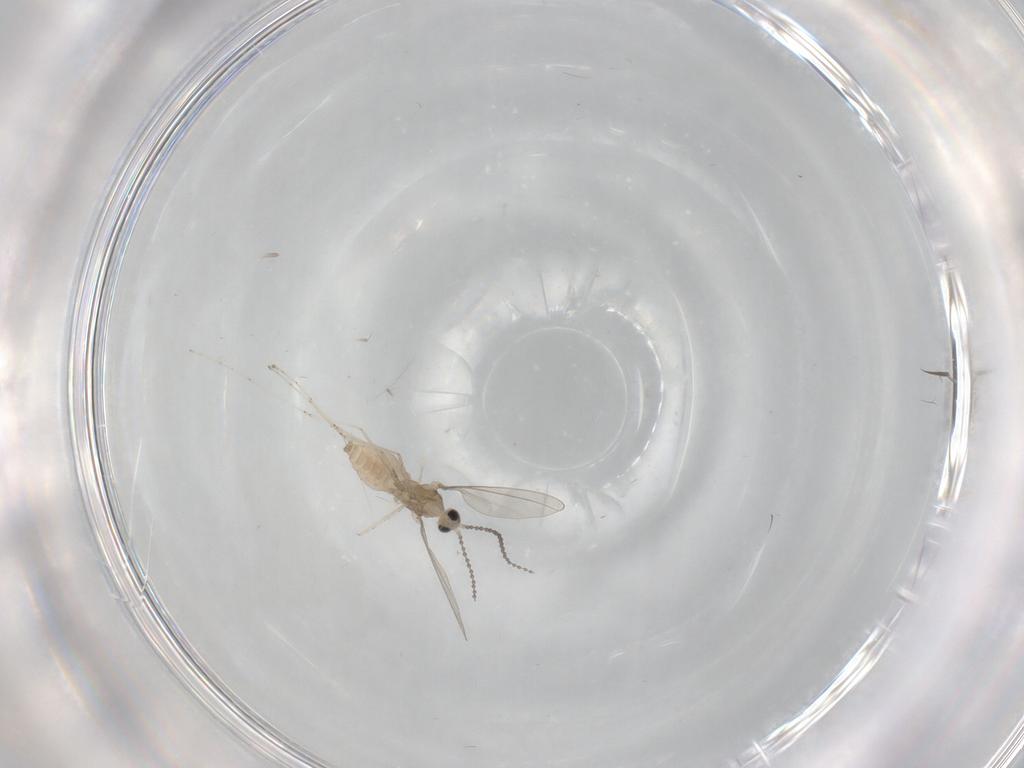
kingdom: Animalia
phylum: Arthropoda
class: Insecta
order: Diptera
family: Cecidomyiidae
